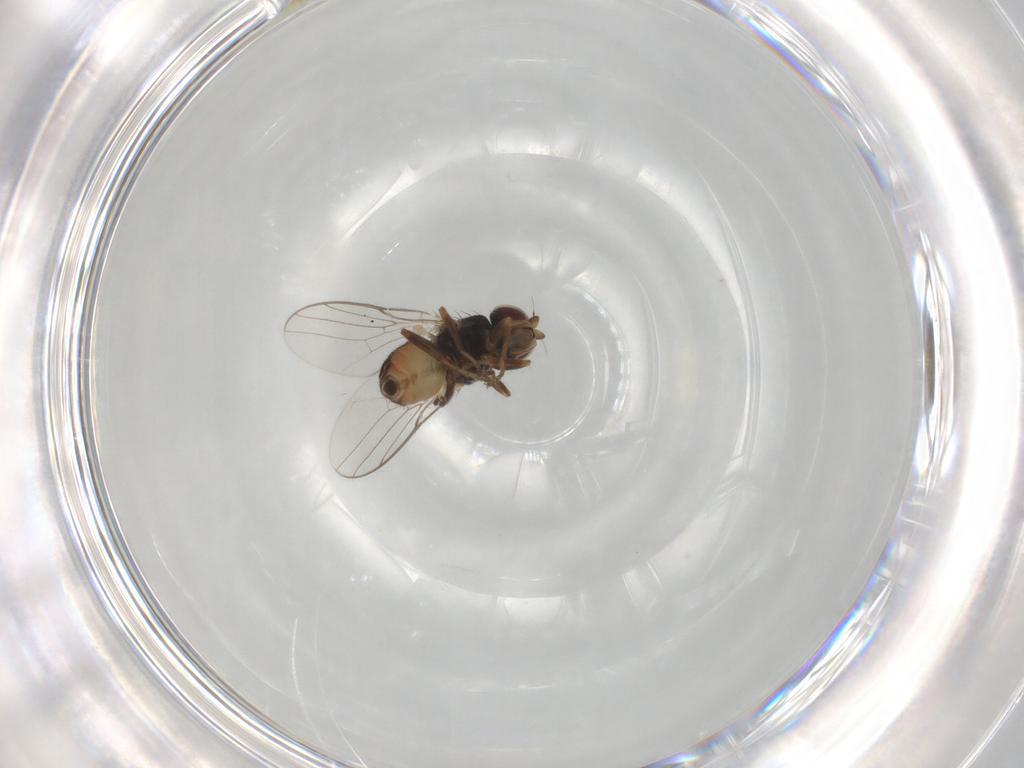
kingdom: Animalia
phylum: Arthropoda
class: Insecta
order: Diptera
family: Chloropidae
